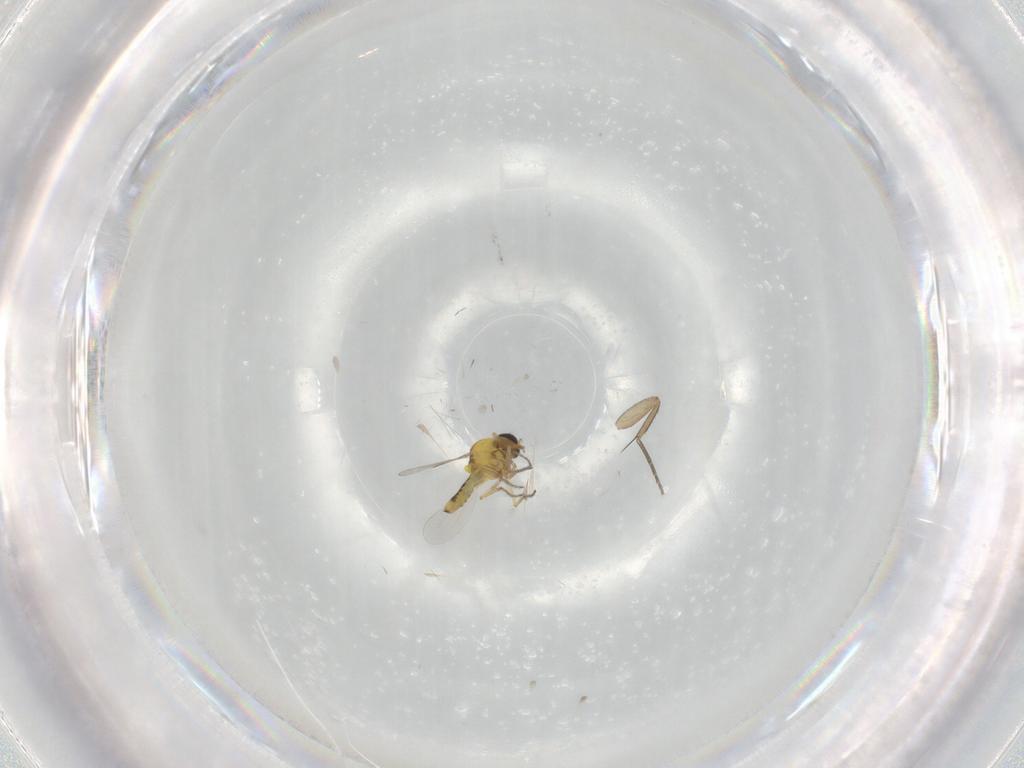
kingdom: Animalia
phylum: Arthropoda
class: Insecta
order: Diptera
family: Phoridae
